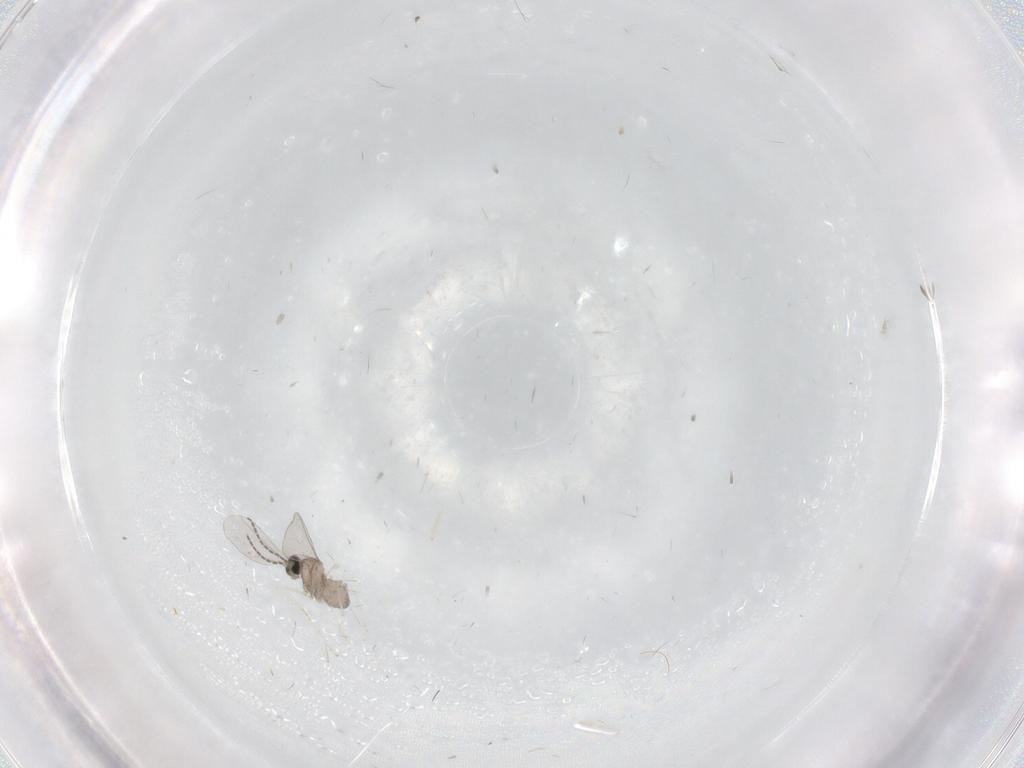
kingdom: Animalia
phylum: Arthropoda
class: Insecta
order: Diptera
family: Cecidomyiidae
